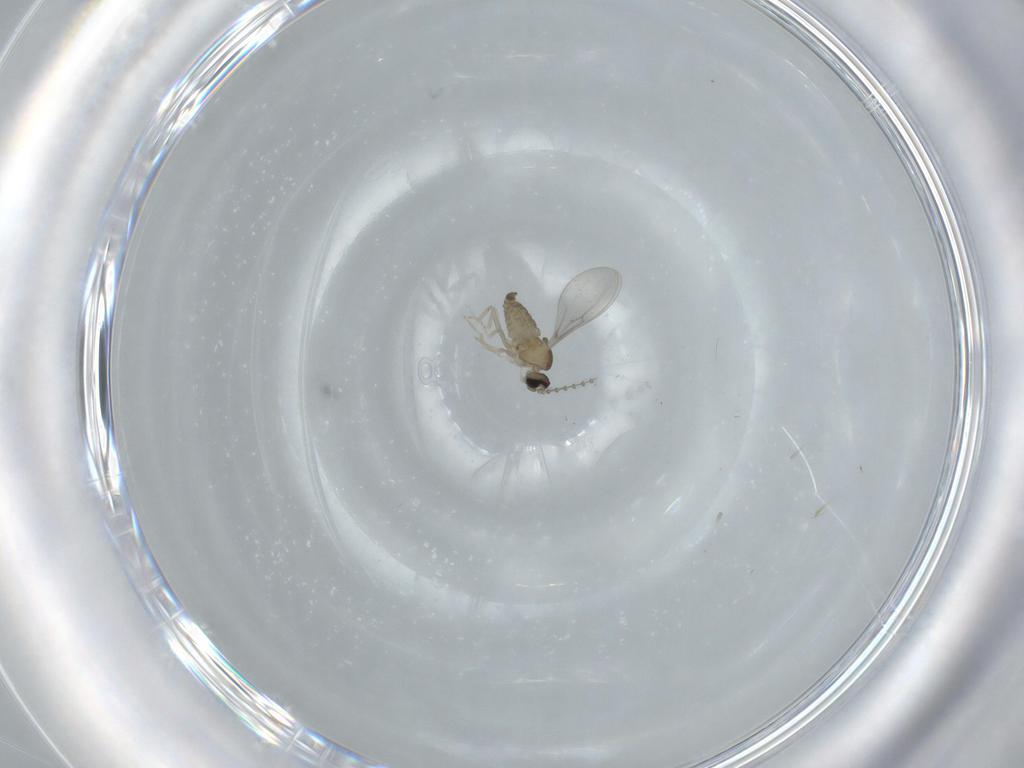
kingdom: Animalia
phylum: Arthropoda
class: Insecta
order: Diptera
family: Cecidomyiidae
